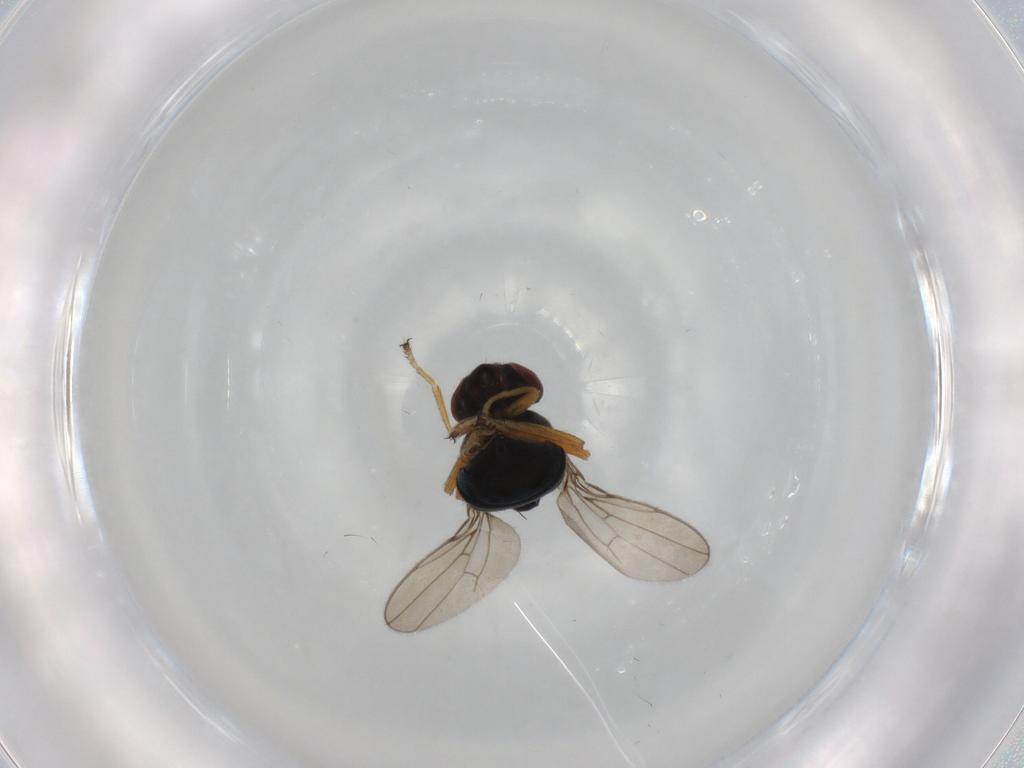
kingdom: Animalia
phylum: Arthropoda
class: Insecta
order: Diptera
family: Ephydridae
